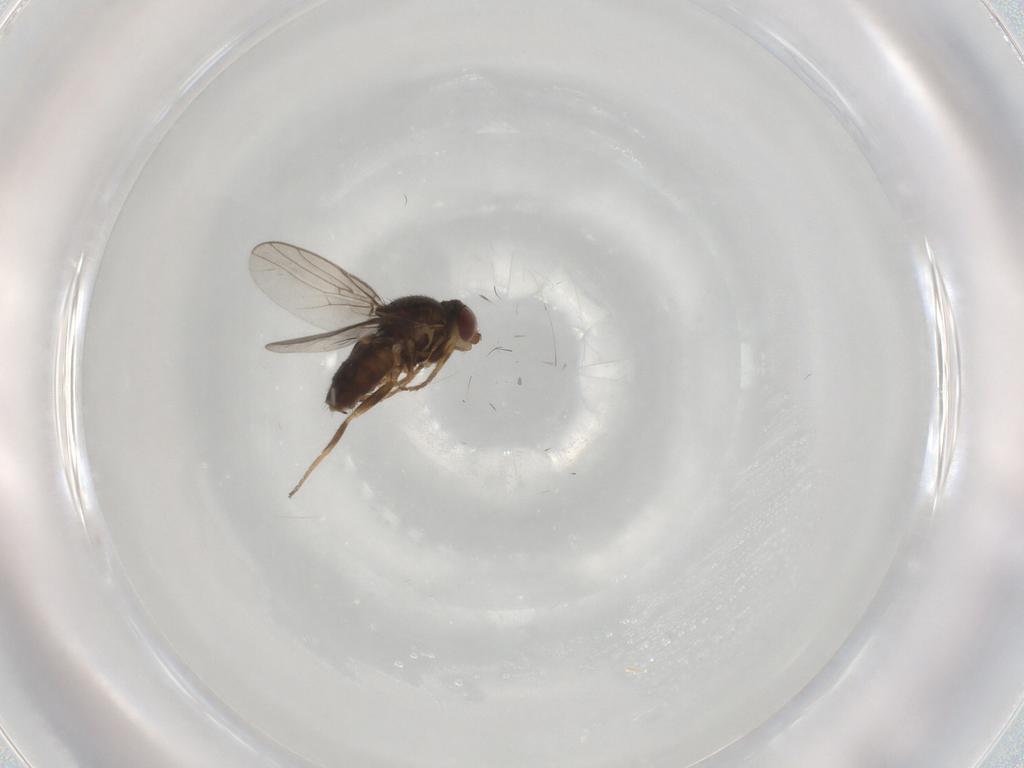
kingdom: Animalia
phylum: Arthropoda
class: Insecta
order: Diptera
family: Chloropidae
